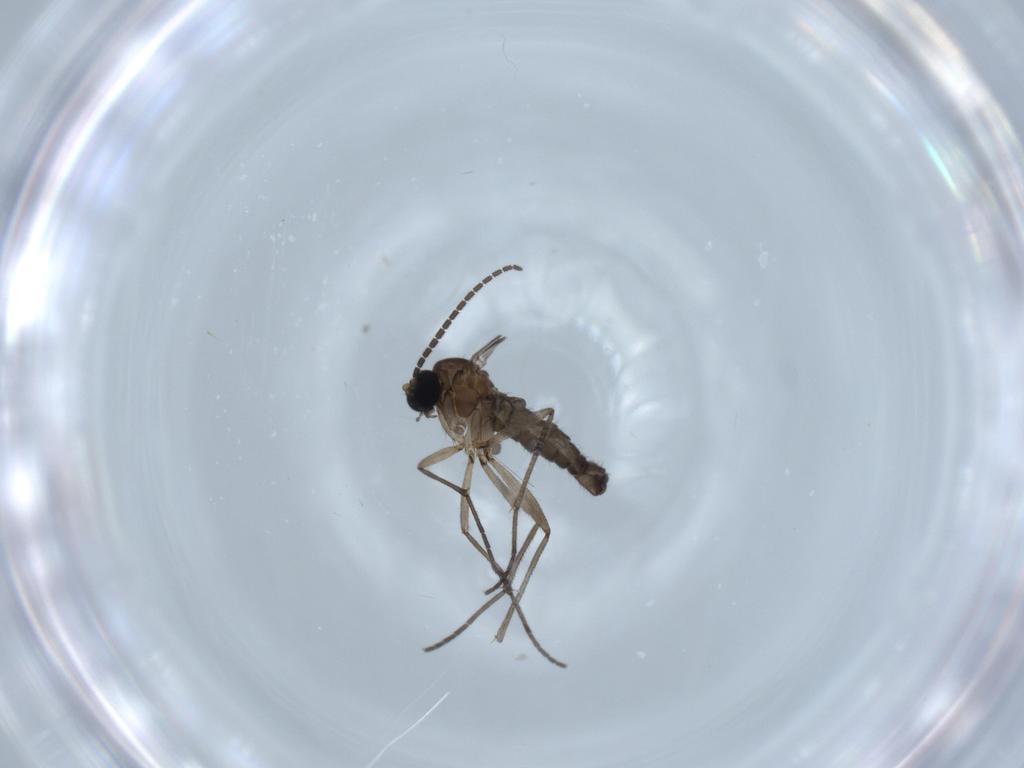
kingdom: Animalia
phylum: Arthropoda
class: Insecta
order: Diptera
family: Sciaridae
